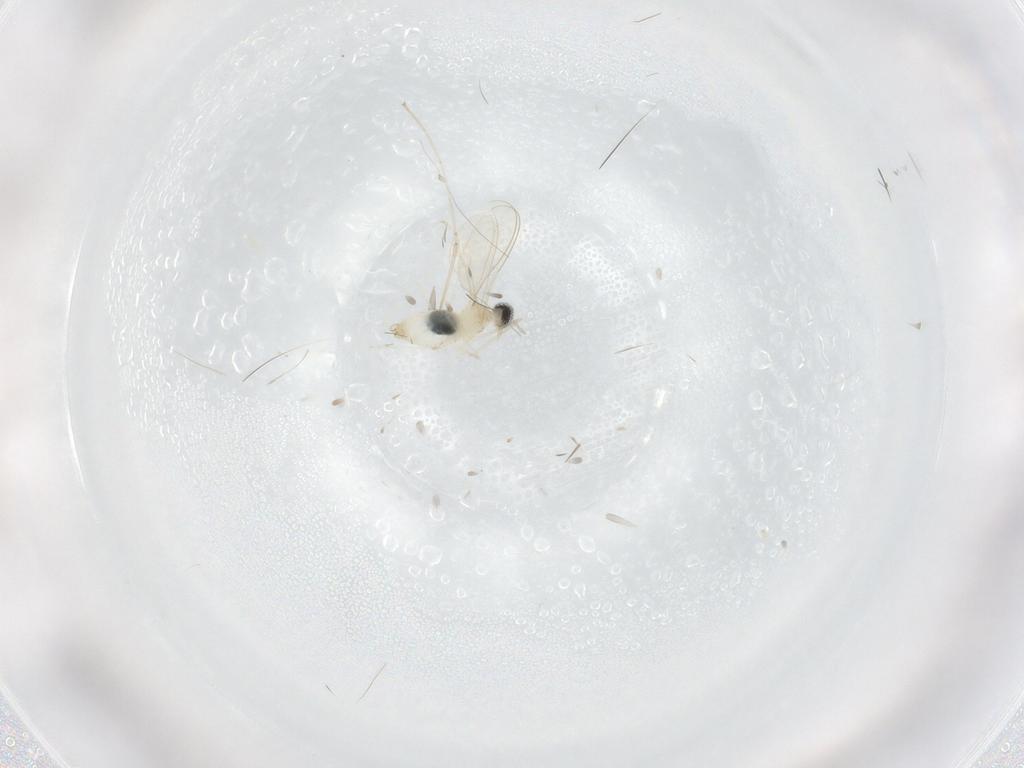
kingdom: Animalia
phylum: Arthropoda
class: Insecta
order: Diptera
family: Cecidomyiidae
